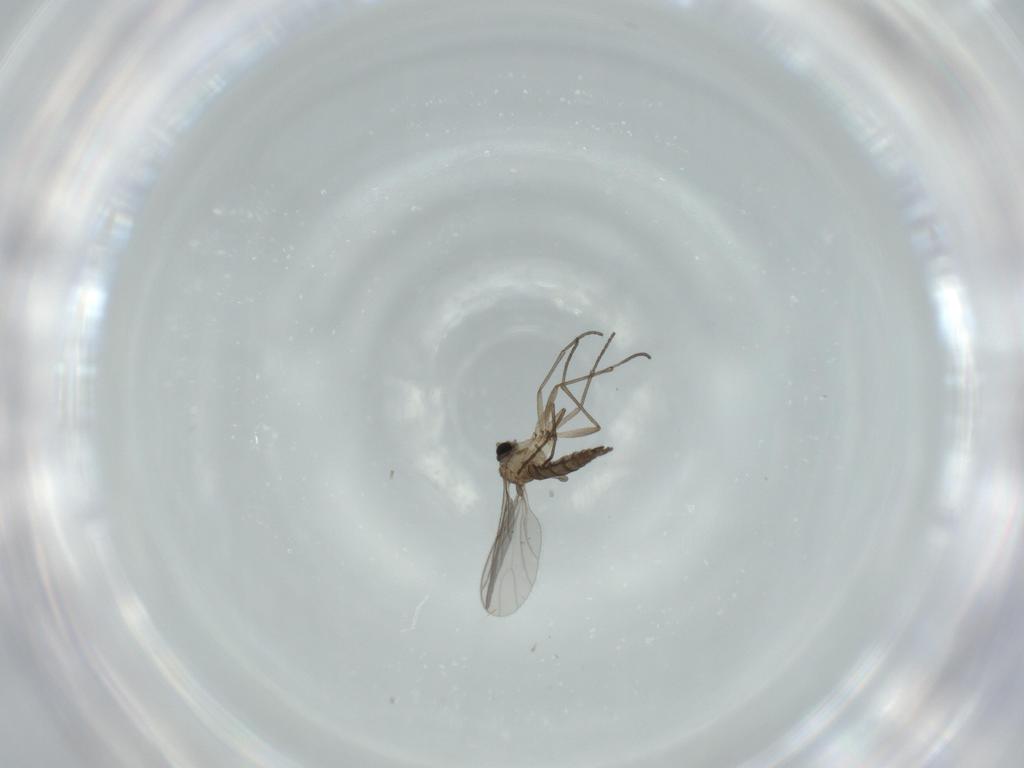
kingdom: Animalia
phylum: Arthropoda
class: Insecta
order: Diptera
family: Sciaridae
